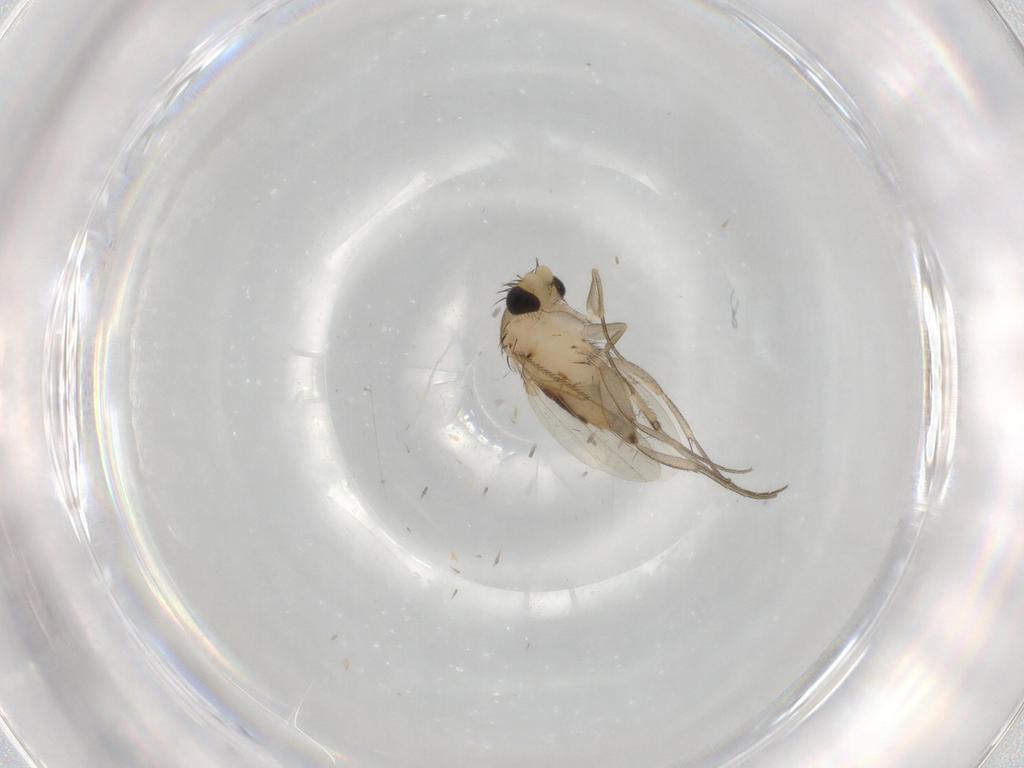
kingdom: Animalia
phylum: Arthropoda
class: Insecta
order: Diptera
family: Phoridae
